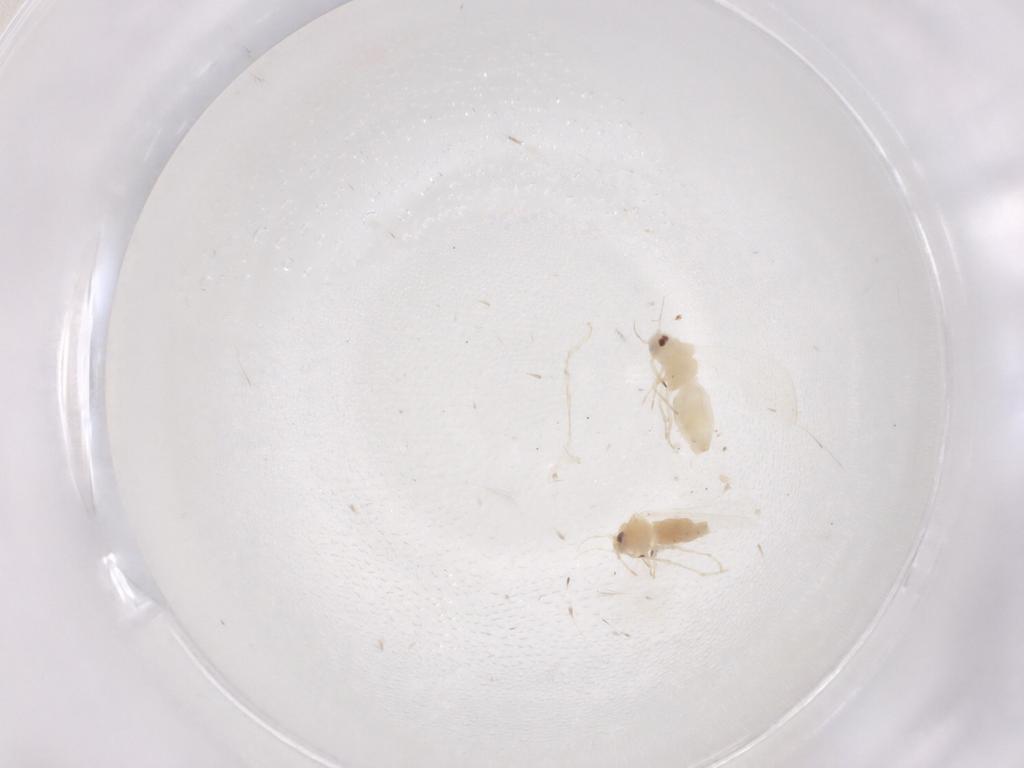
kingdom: Animalia
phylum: Arthropoda
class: Insecta
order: Hemiptera
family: Aleyrodidae
